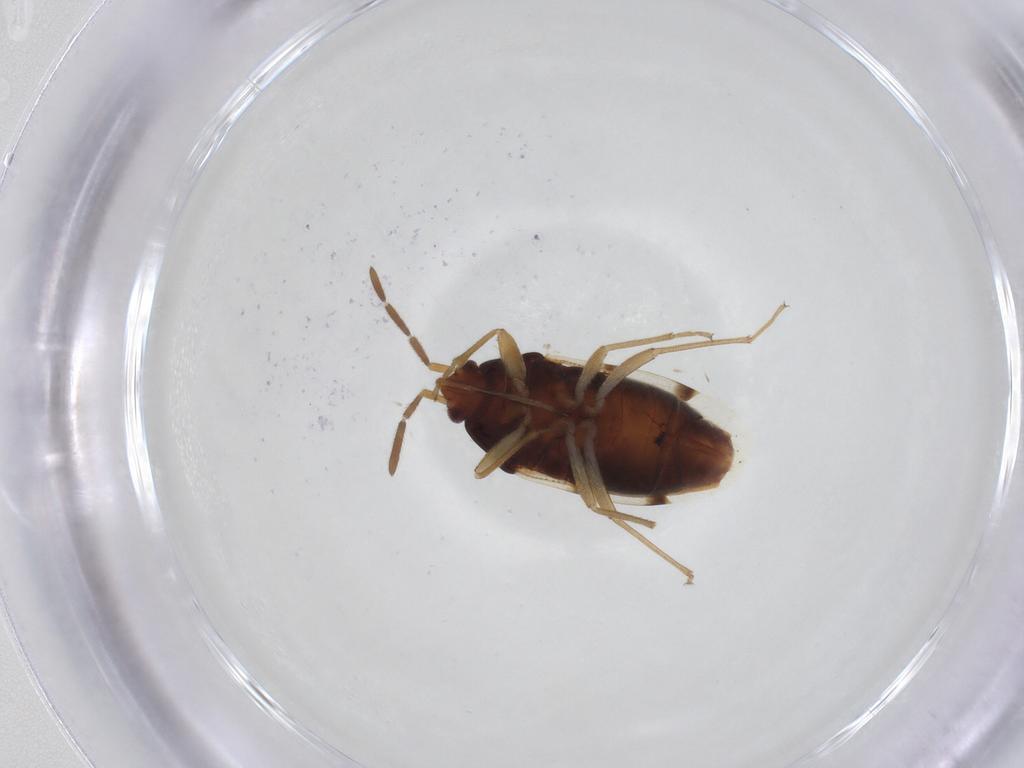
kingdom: Animalia
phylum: Arthropoda
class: Insecta
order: Hemiptera
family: Rhyparochromidae
